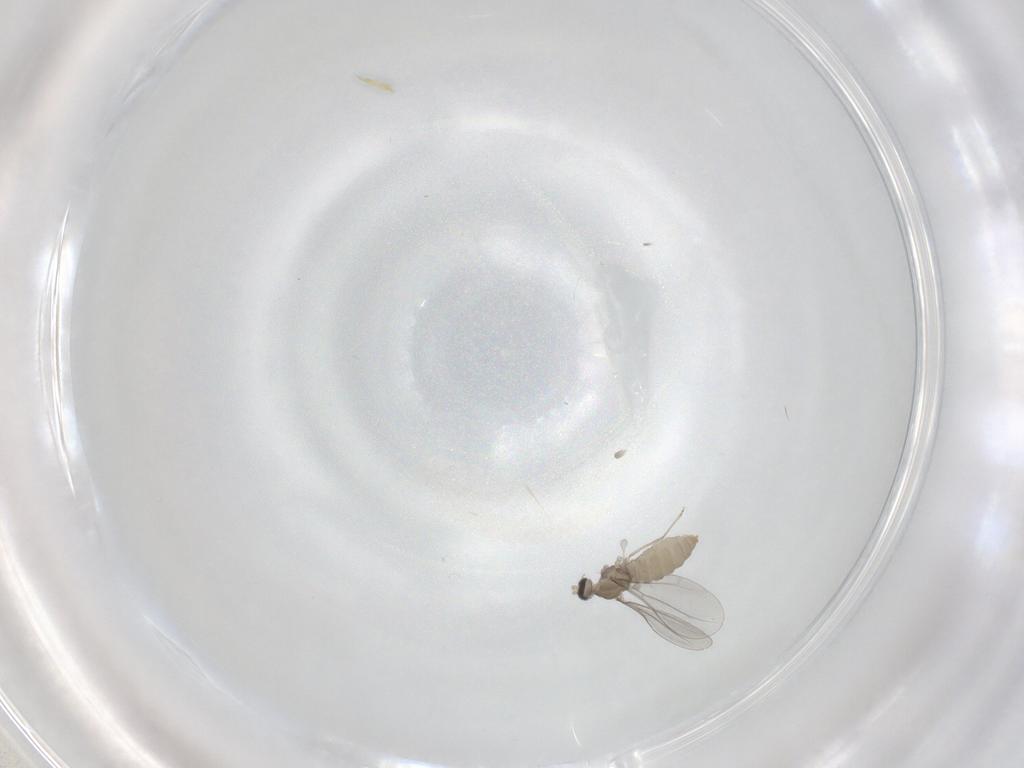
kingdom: Animalia
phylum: Arthropoda
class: Insecta
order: Diptera
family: Cecidomyiidae
